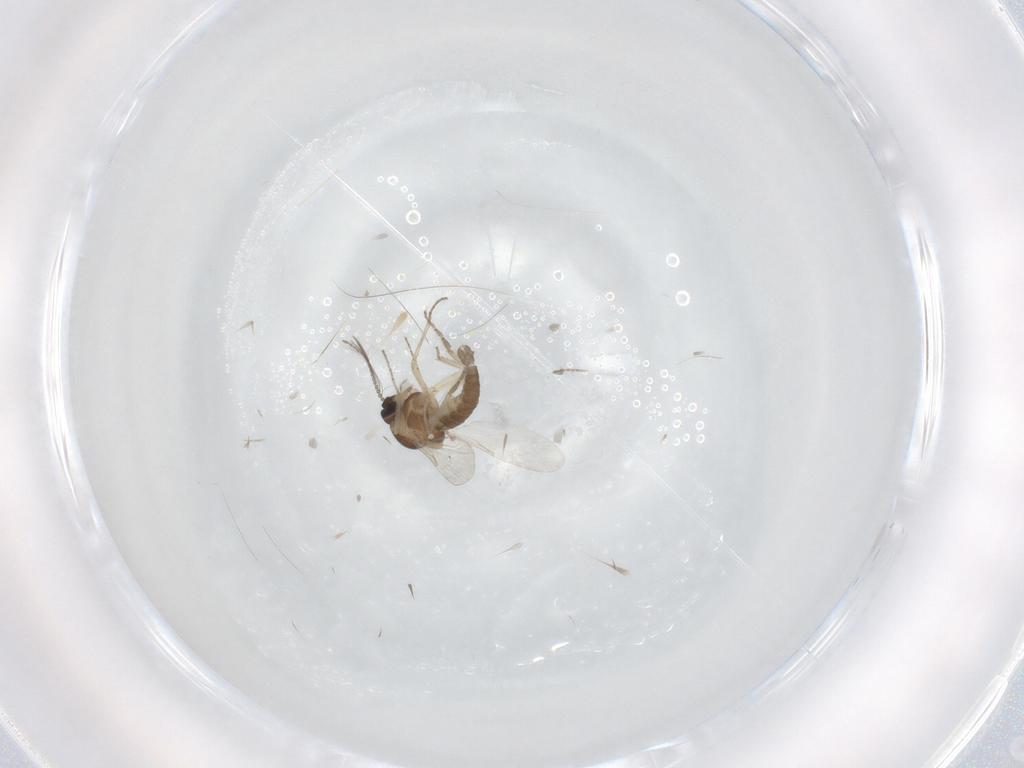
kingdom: Animalia
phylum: Arthropoda
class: Insecta
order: Diptera
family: Ceratopogonidae
